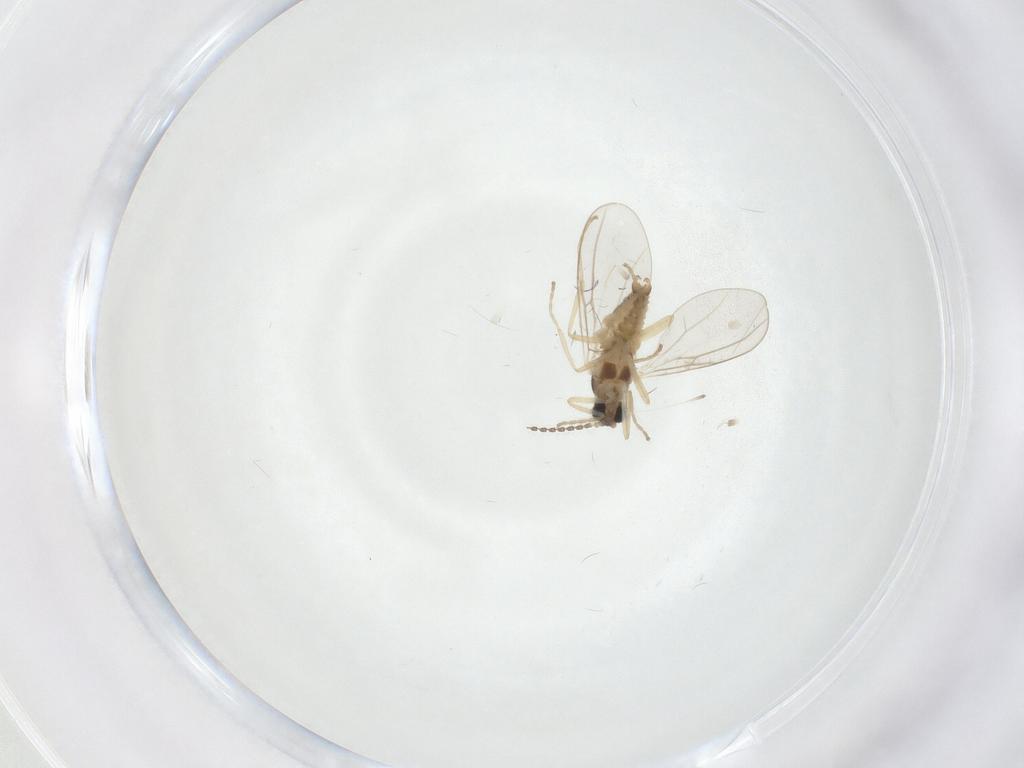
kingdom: Animalia
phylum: Arthropoda
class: Insecta
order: Diptera
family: Cecidomyiidae
